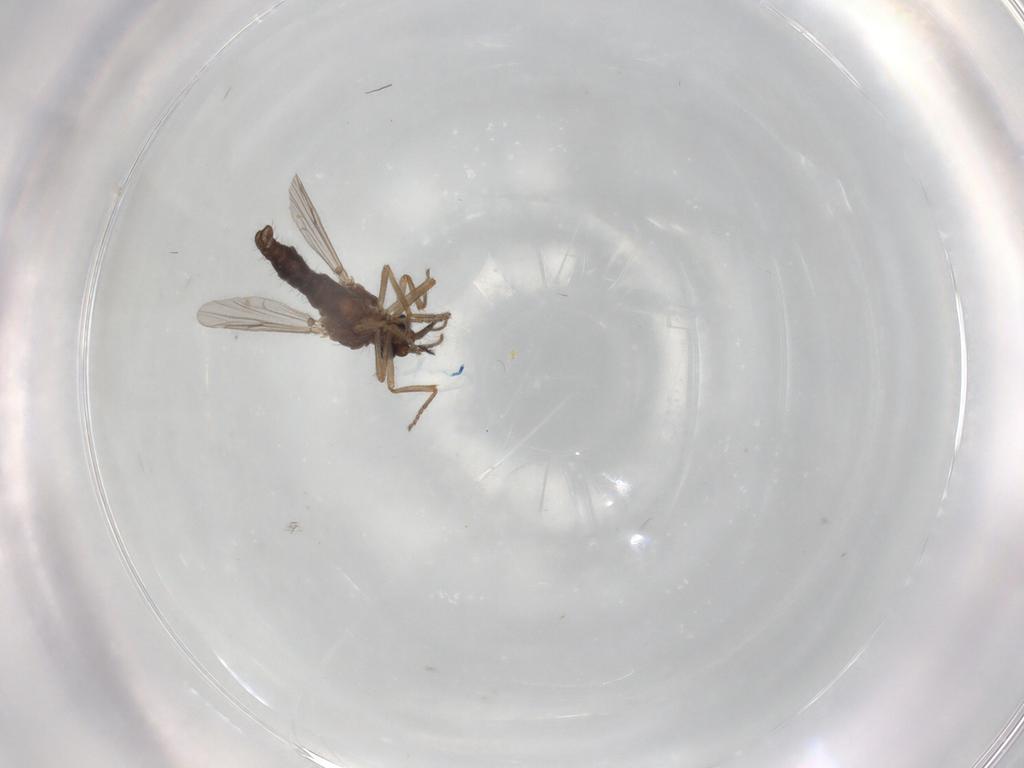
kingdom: Animalia
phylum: Arthropoda
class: Insecta
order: Diptera
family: Ceratopogonidae
